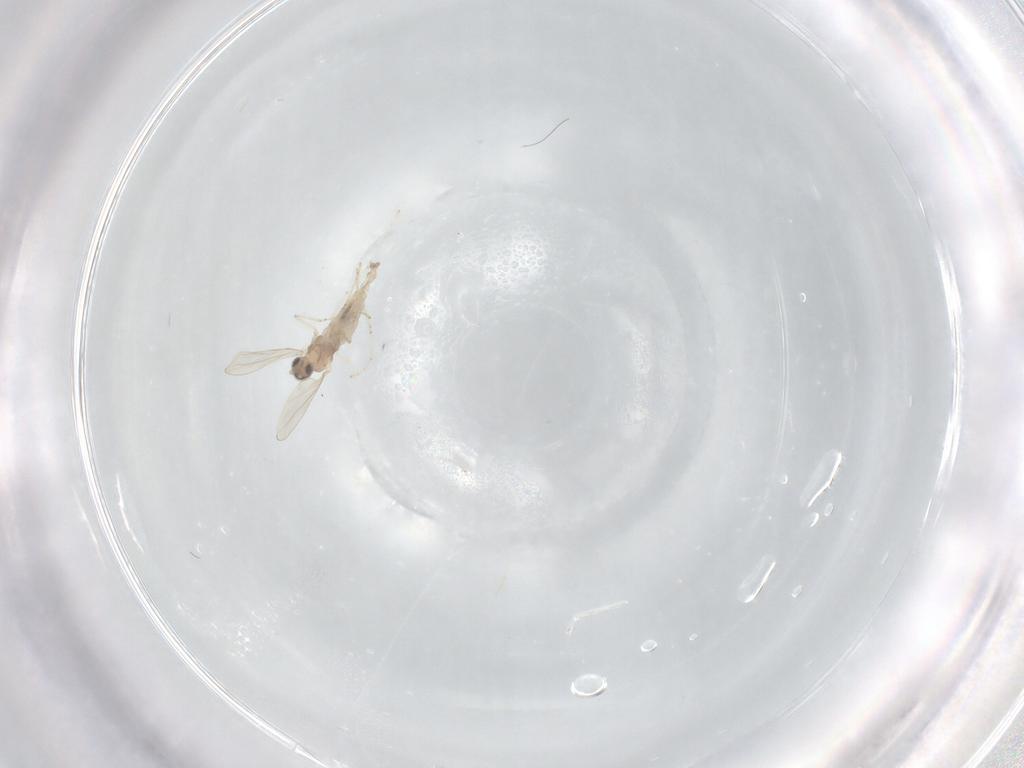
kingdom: Animalia
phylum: Arthropoda
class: Insecta
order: Diptera
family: Cecidomyiidae
